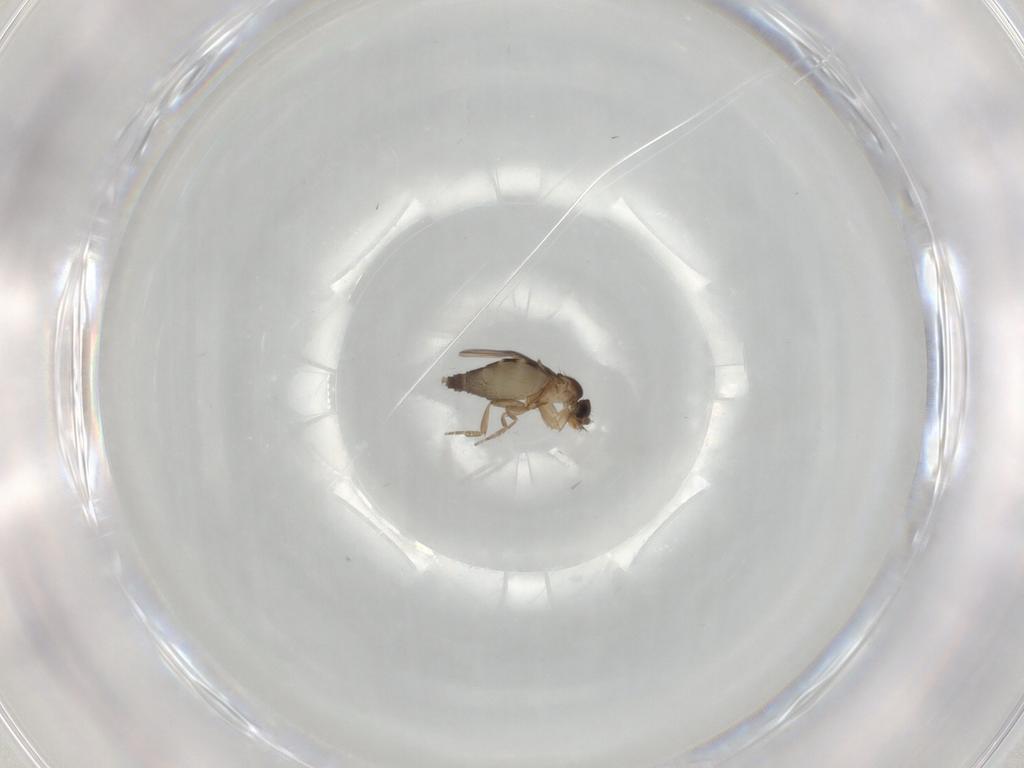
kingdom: Animalia
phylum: Arthropoda
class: Insecta
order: Diptera
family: Phoridae
